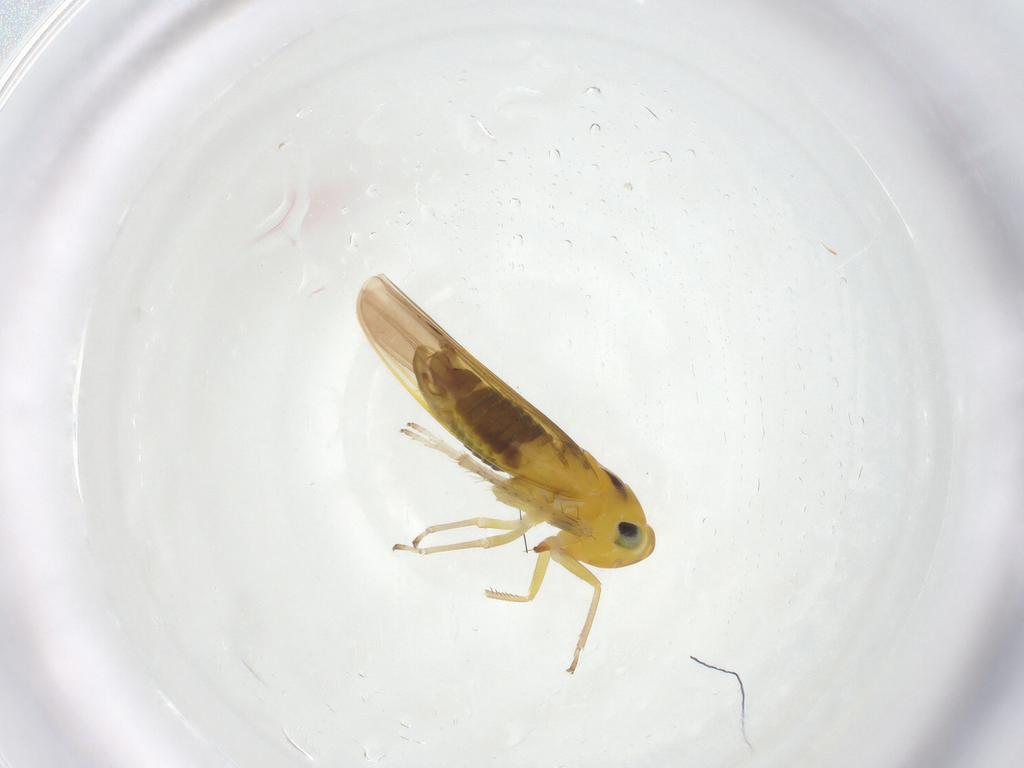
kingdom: Animalia
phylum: Arthropoda
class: Insecta
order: Hemiptera
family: Cicadellidae
